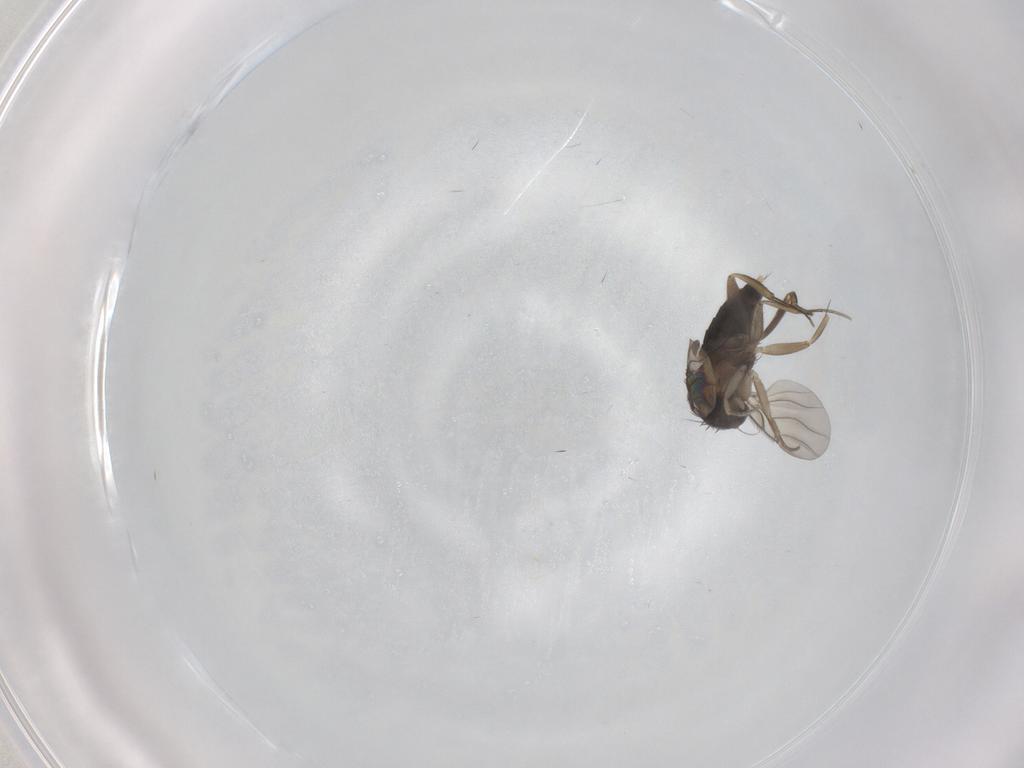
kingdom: Animalia
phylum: Arthropoda
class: Insecta
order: Diptera
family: Phoridae
